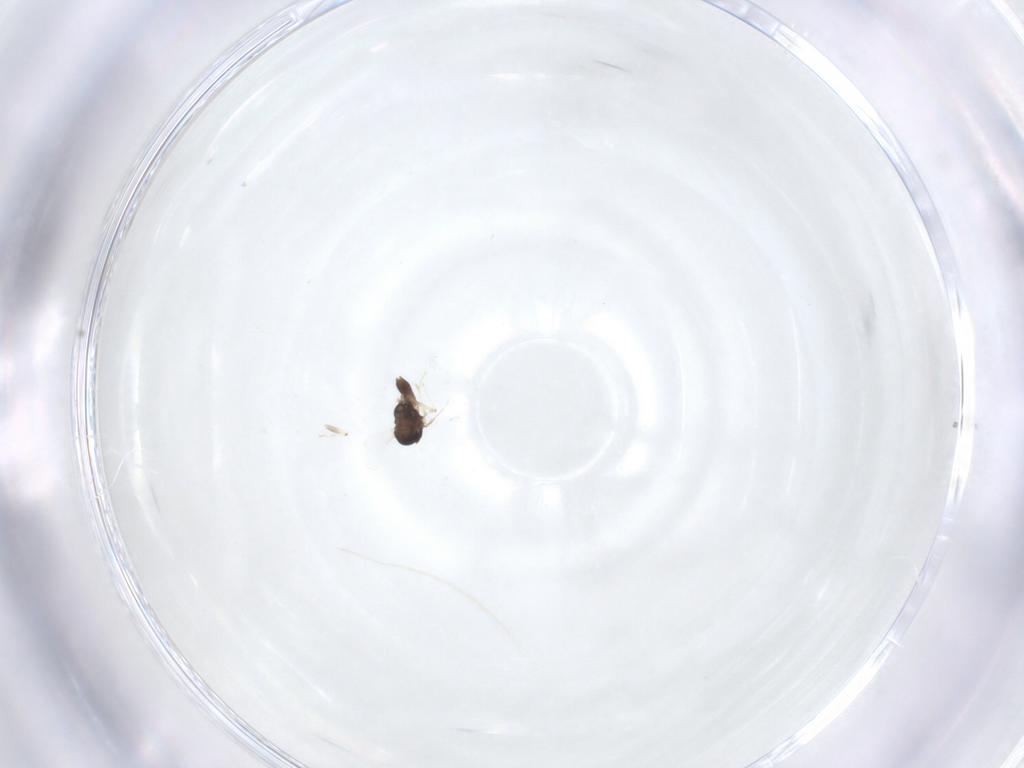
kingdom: Animalia
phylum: Arthropoda
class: Insecta
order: Diptera
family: Chironomidae
